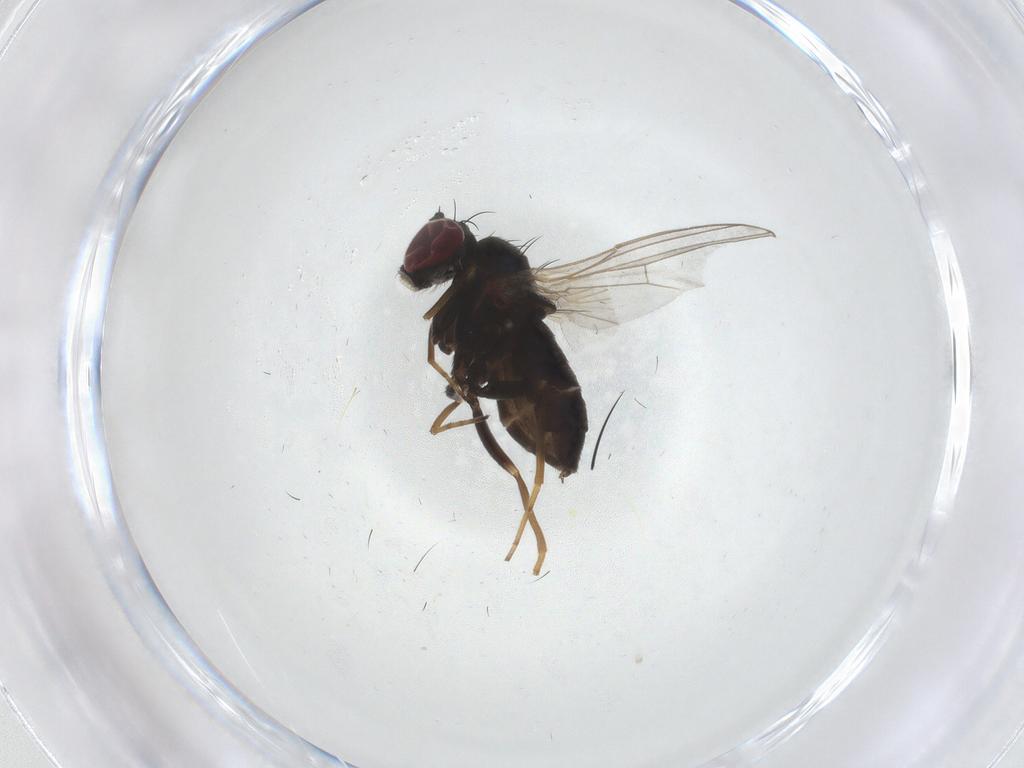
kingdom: Animalia
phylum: Arthropoda
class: Insecta
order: Diptera
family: Dolichopodidae
